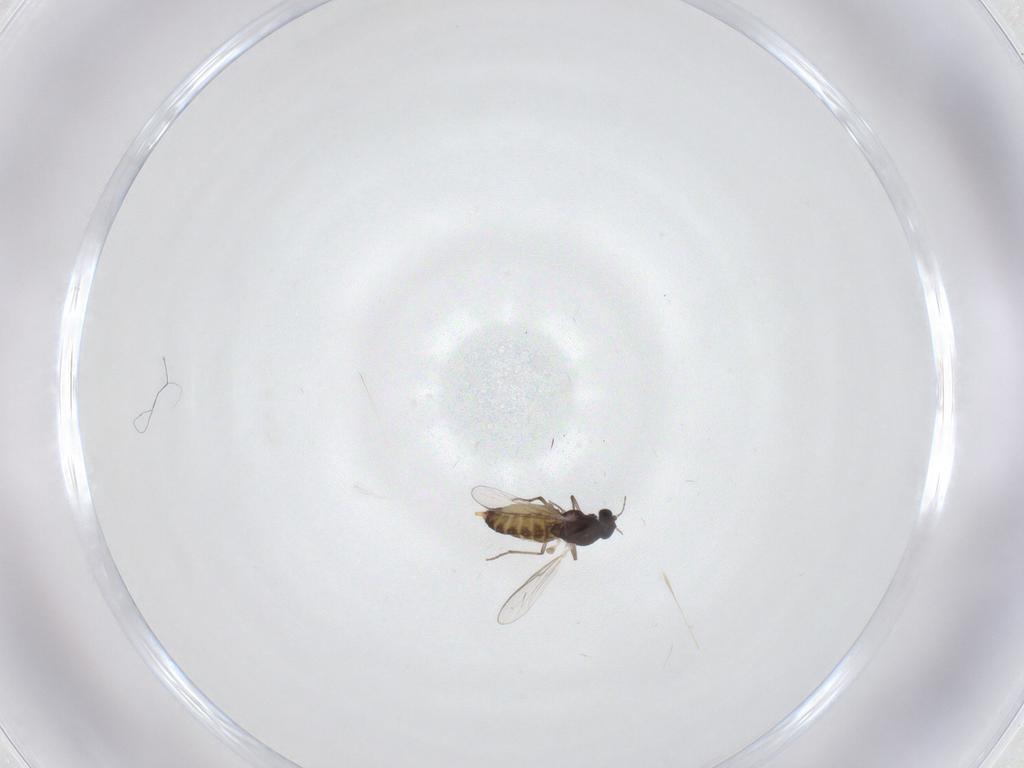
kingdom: Animalia
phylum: Arthropoda
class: Insecta
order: Diptera
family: Chironomidae
